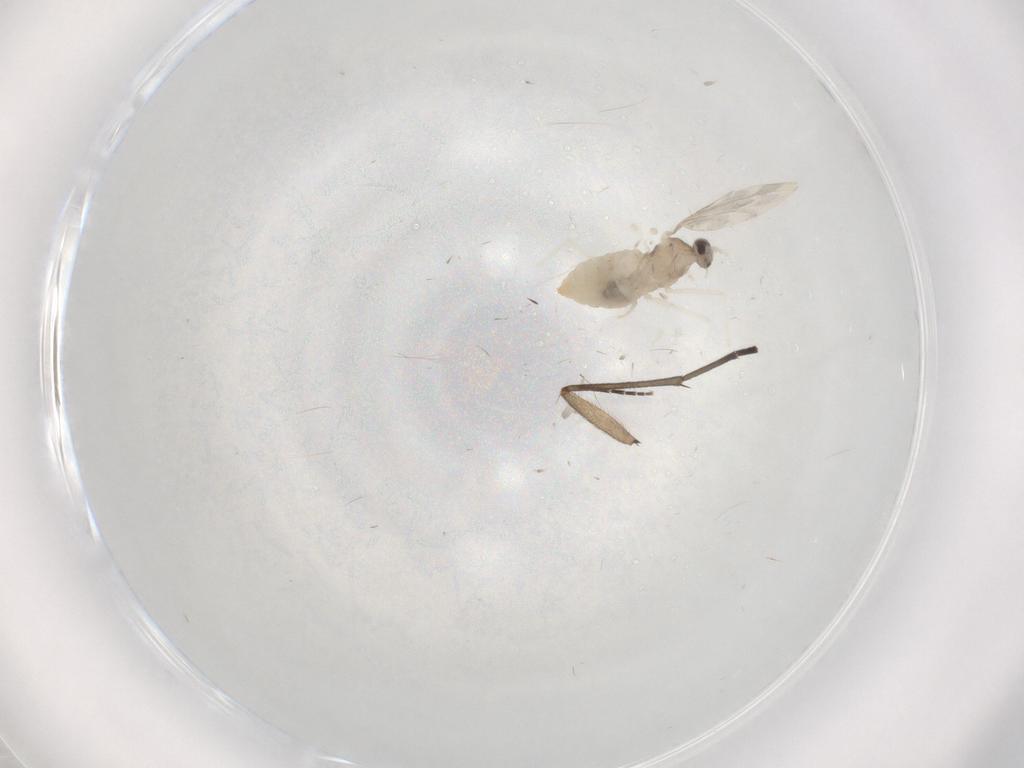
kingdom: Animalia
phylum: Arthropoda
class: Insecta
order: Diptera
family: Sciaridae
